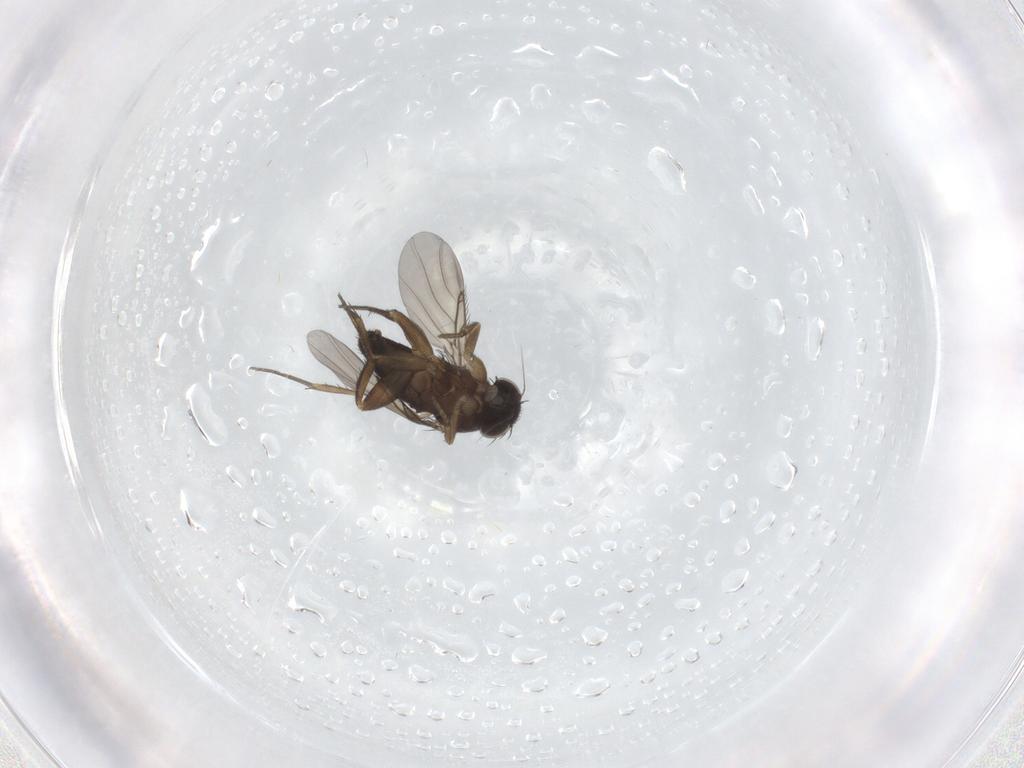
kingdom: Animalia
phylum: Arthropoda
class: Insecta
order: Diptera
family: Phoridae
